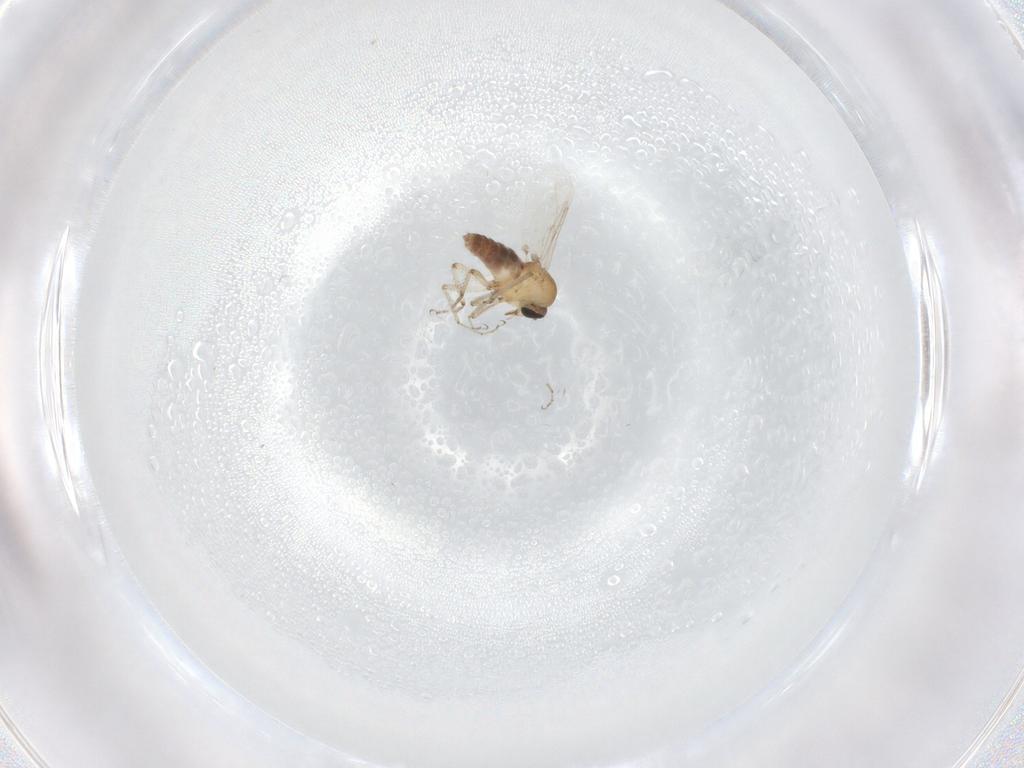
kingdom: Animalia
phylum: Arthropoda
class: Insecta
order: Diptera
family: Ceratopogonidae
